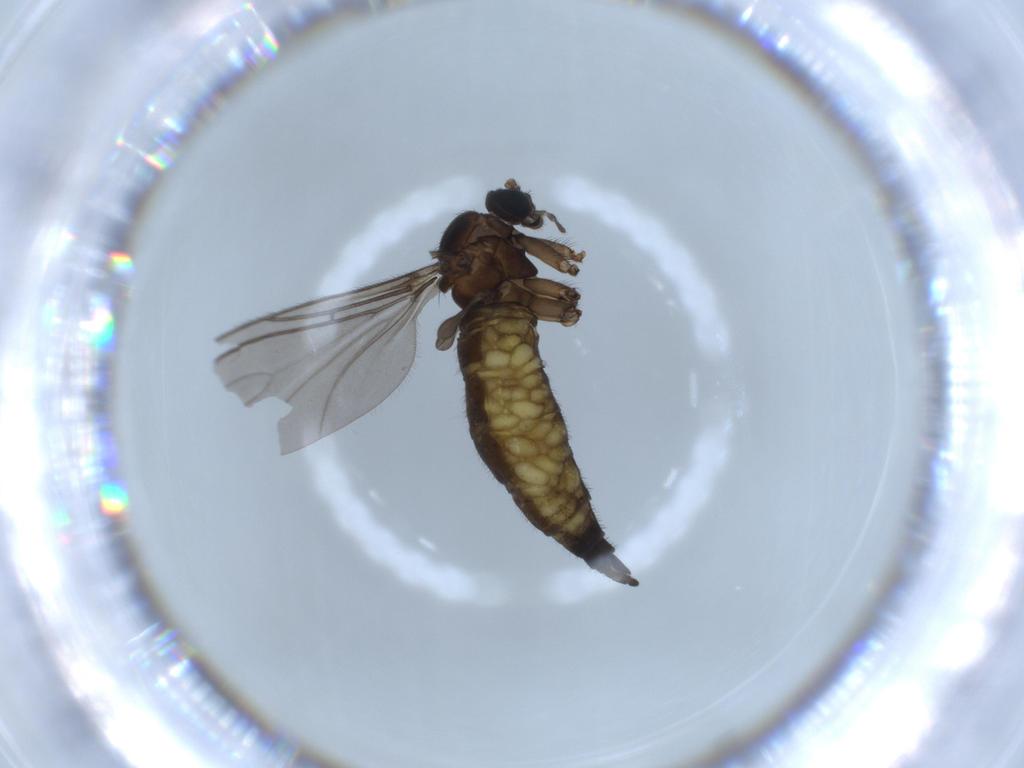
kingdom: Animalia
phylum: Arthropoda
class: Insecta
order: Diptera
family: Sciaridae
